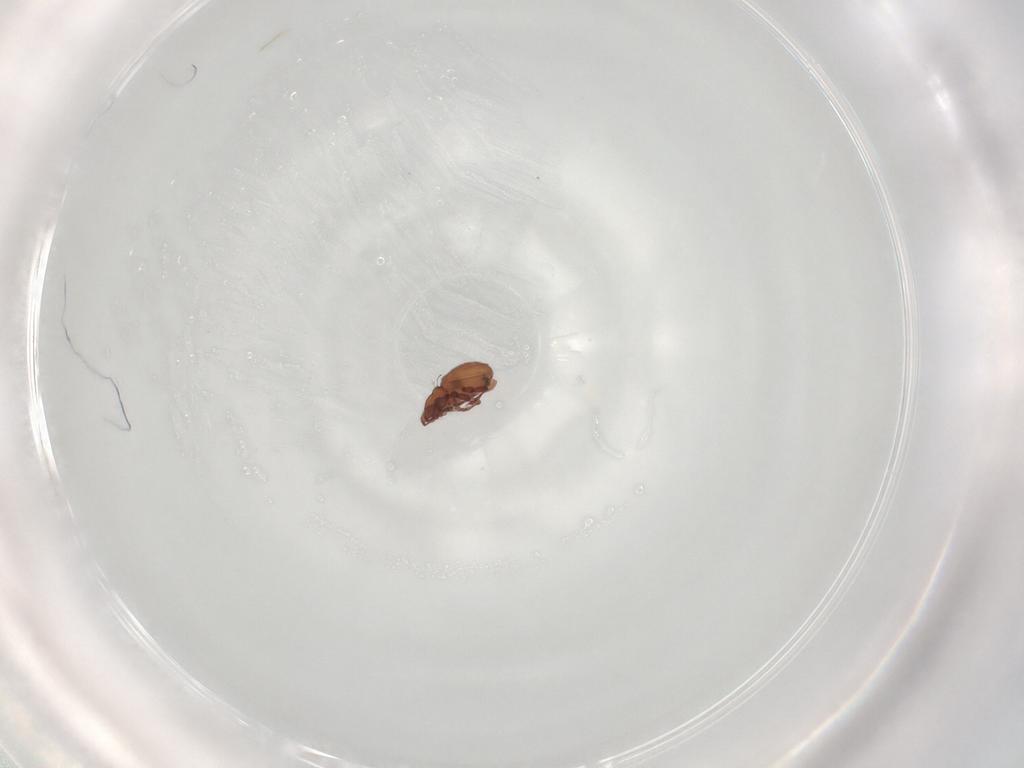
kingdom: Animalia
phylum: Arthropoda
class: Arachnida
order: Sarcoptiformes
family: Eremaeidae
